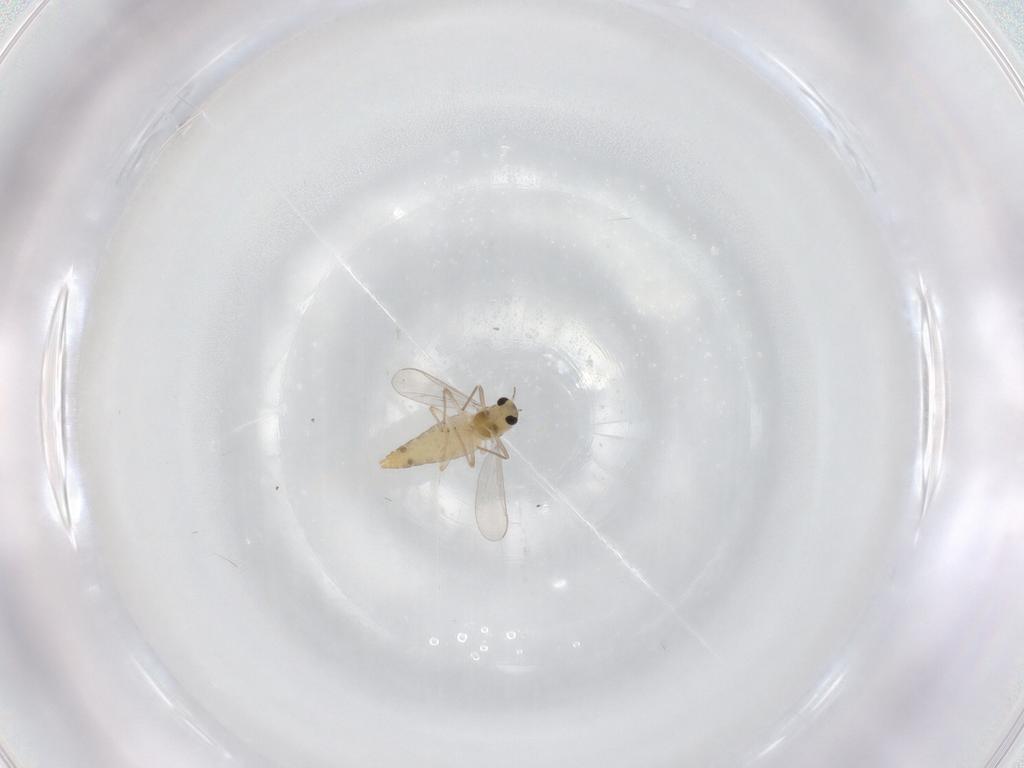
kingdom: Animalia
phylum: Arthropoda
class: Insecta
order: Diptera
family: Chironomidae
